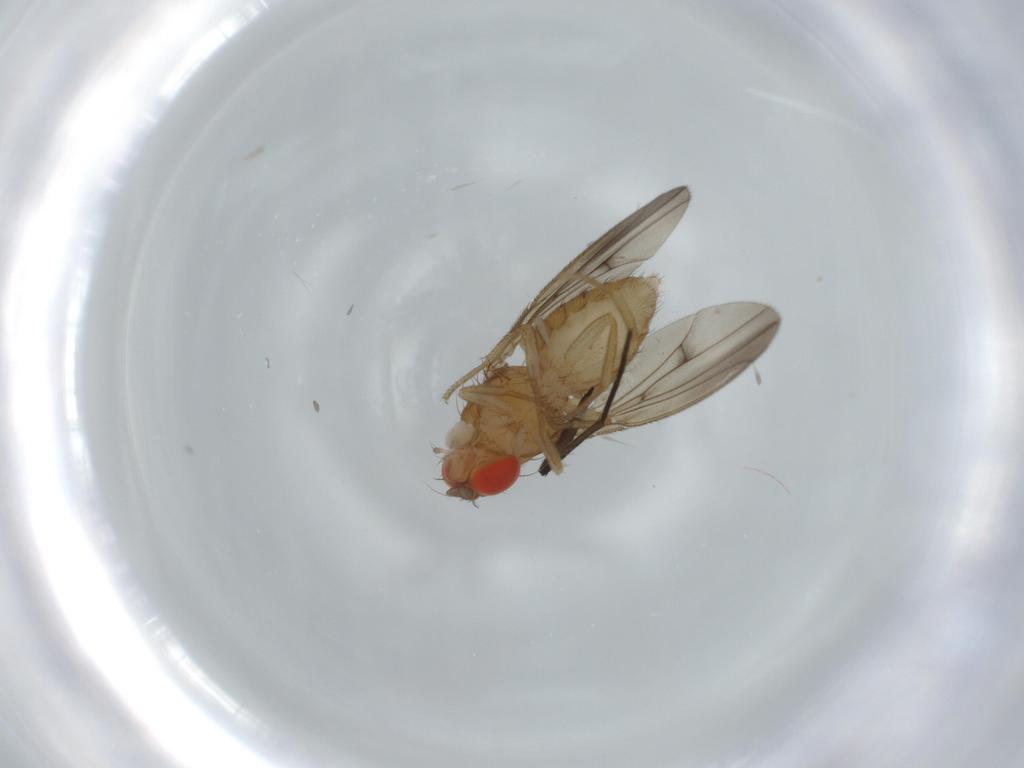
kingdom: Animalia
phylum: Arthropoda
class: Insecta
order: Diptera
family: Drosophilidae
